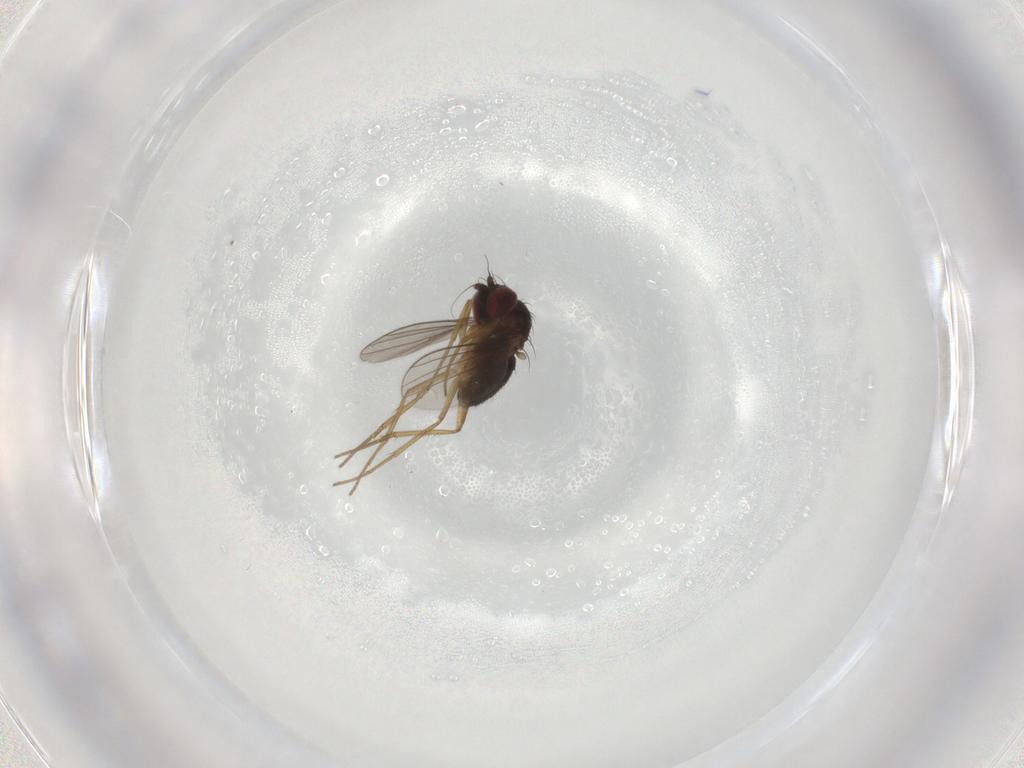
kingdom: Animalia
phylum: Arthropoda
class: Insecta
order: Diptera
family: Dolichopodidae
